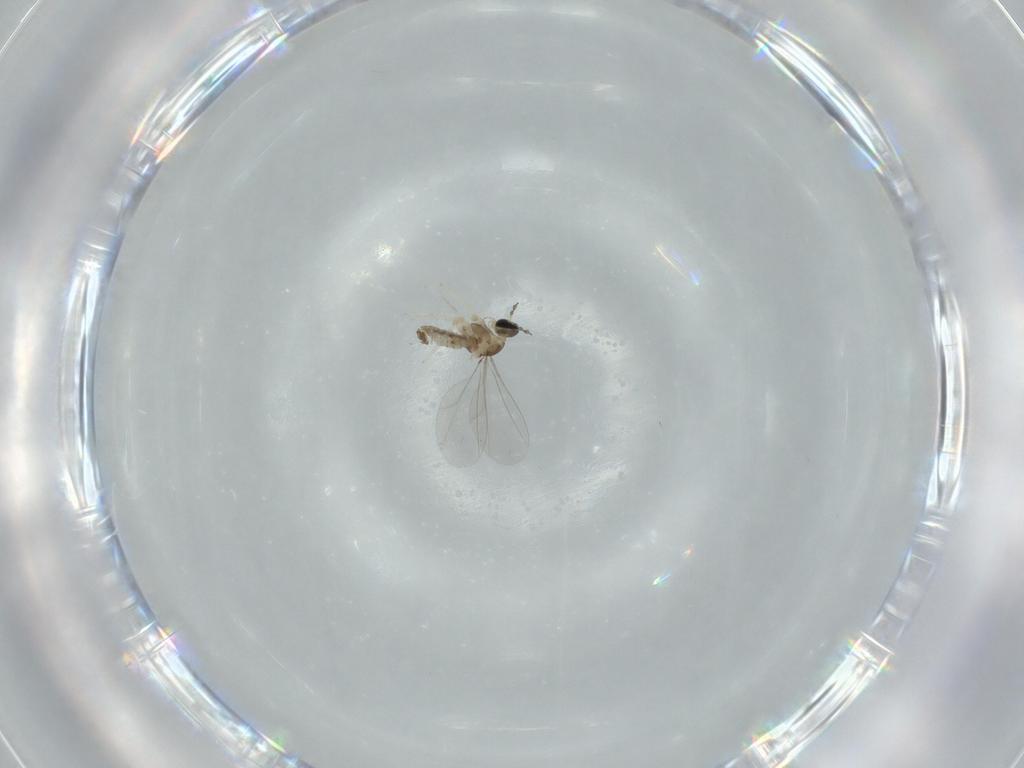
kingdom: Animalia
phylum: Arthropoda
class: Insecta
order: Diptera
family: Cecidomyiidae
